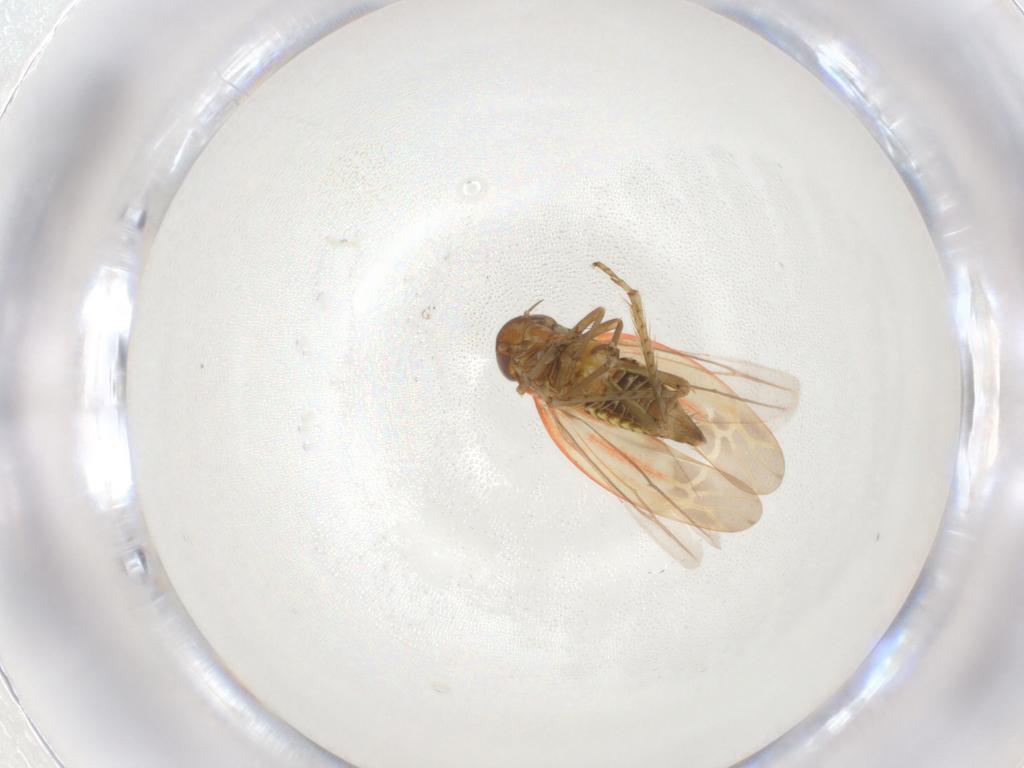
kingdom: Animalia
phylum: Arthropoda
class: Insecta
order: Hemiptera
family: Cicadellidae
